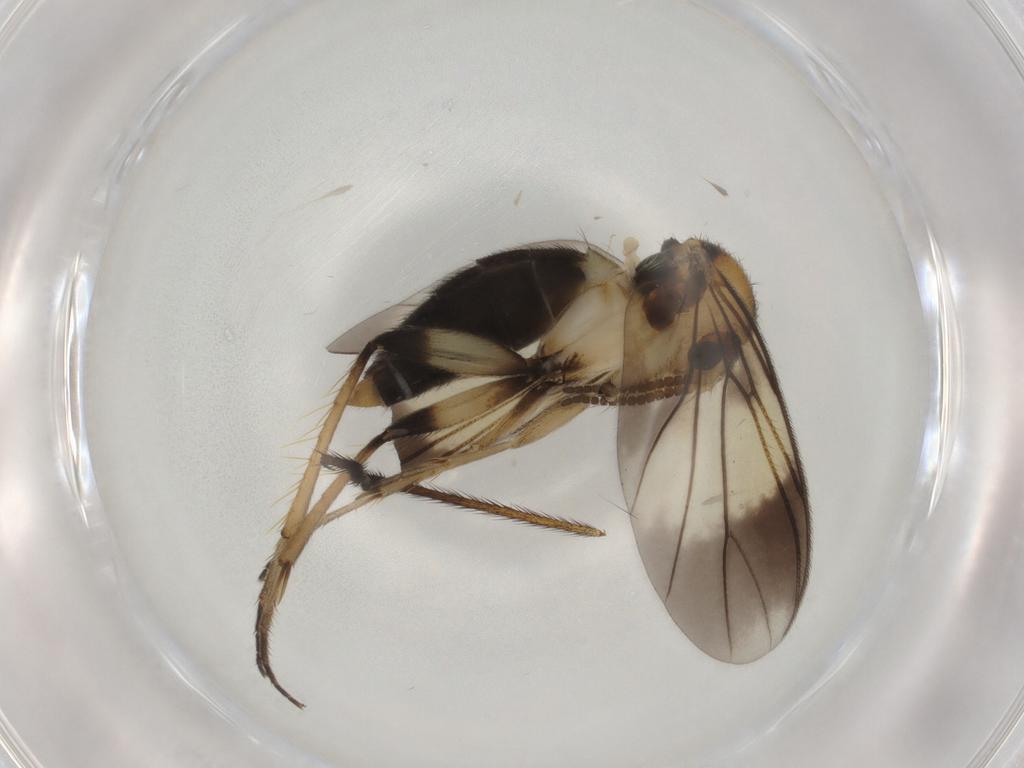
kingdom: Animalia
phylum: Arthropoda
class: Insecta
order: Diptera
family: Mycetophilidae
